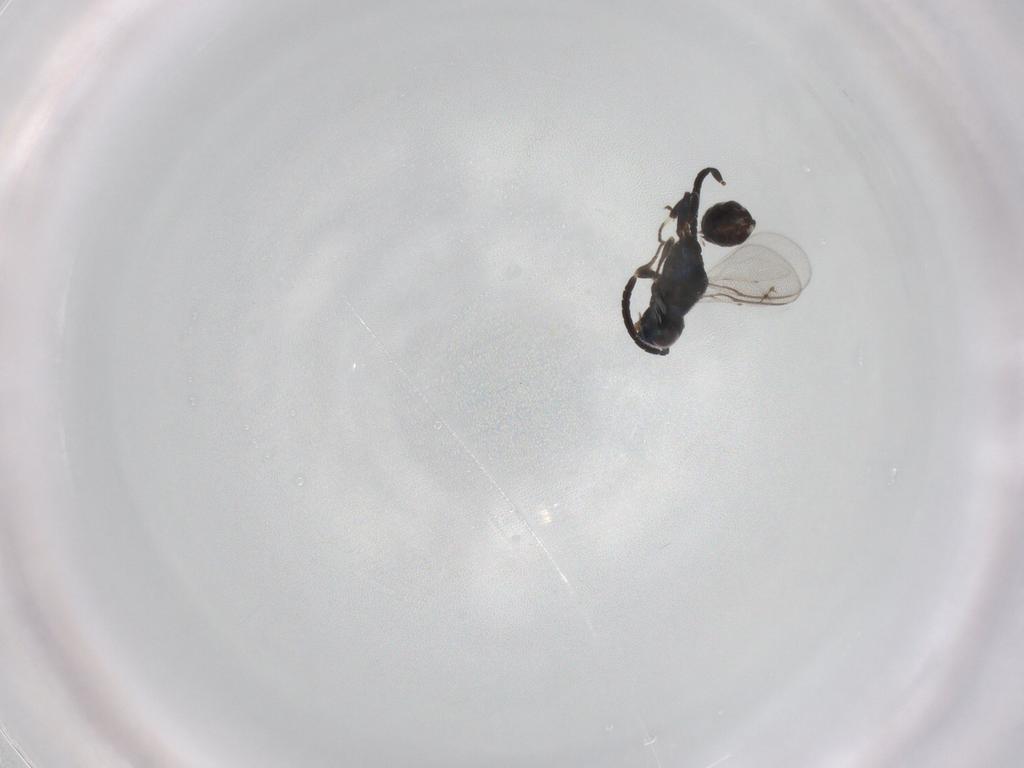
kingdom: Animalia
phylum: Arthropoda
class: Insecta
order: Hymenoptera
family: Eupelmidae
